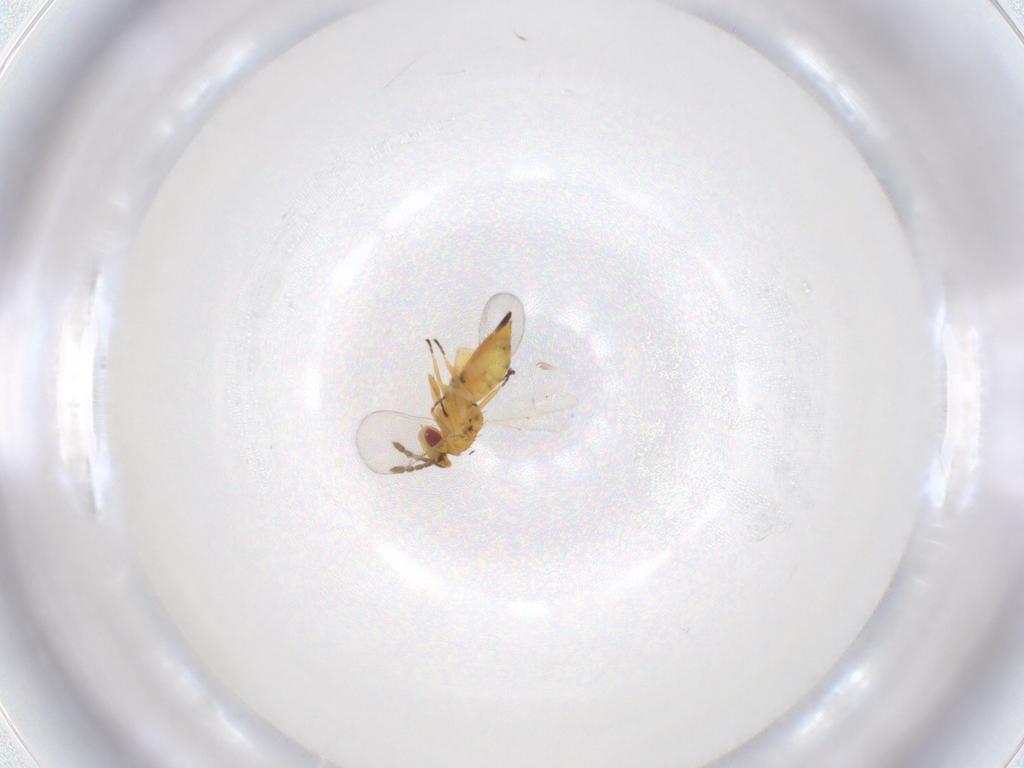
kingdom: Animalia
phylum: Arthropoda
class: Insecta
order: Hymenoptera
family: Eulophidae
